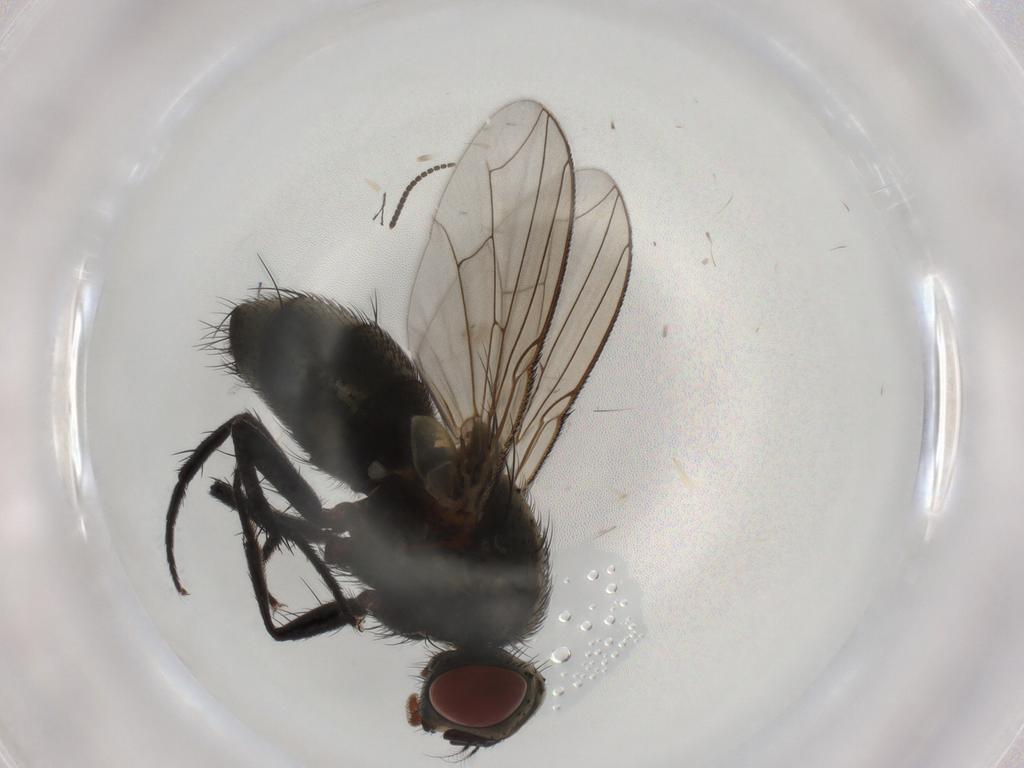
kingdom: Animalia
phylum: Arthropoda
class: Insecta
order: Diptera
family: Sarcophagidae
